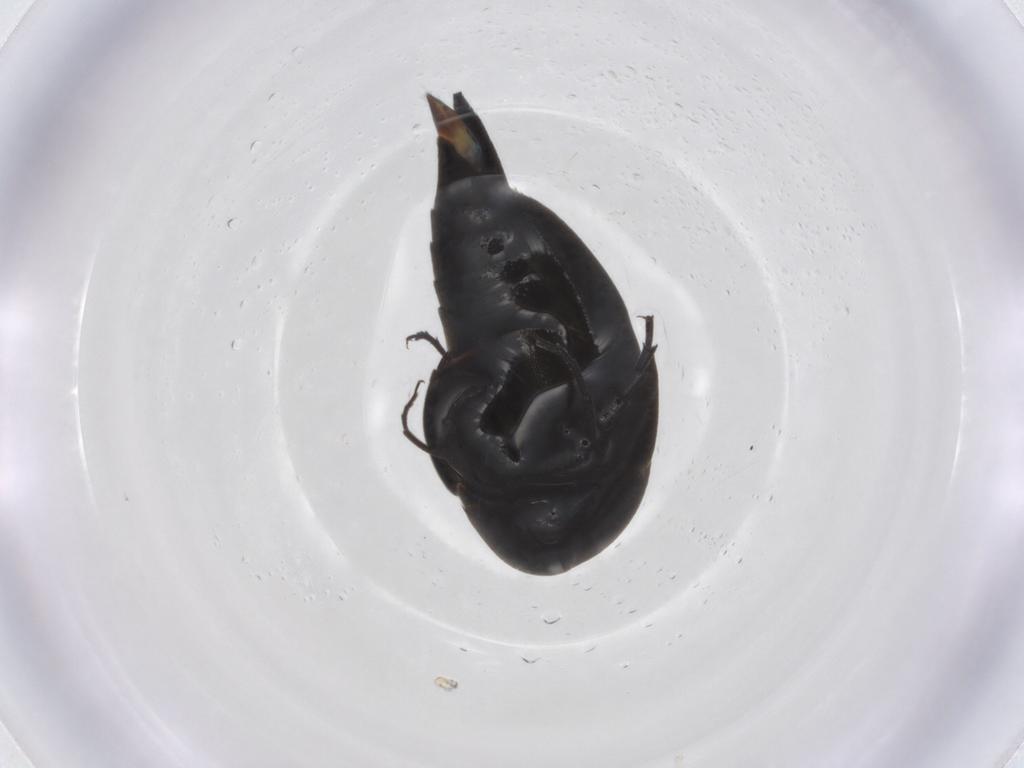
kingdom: Animalia
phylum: Arthropoda
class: Insecta
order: Coleoptera
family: Mordellidae
